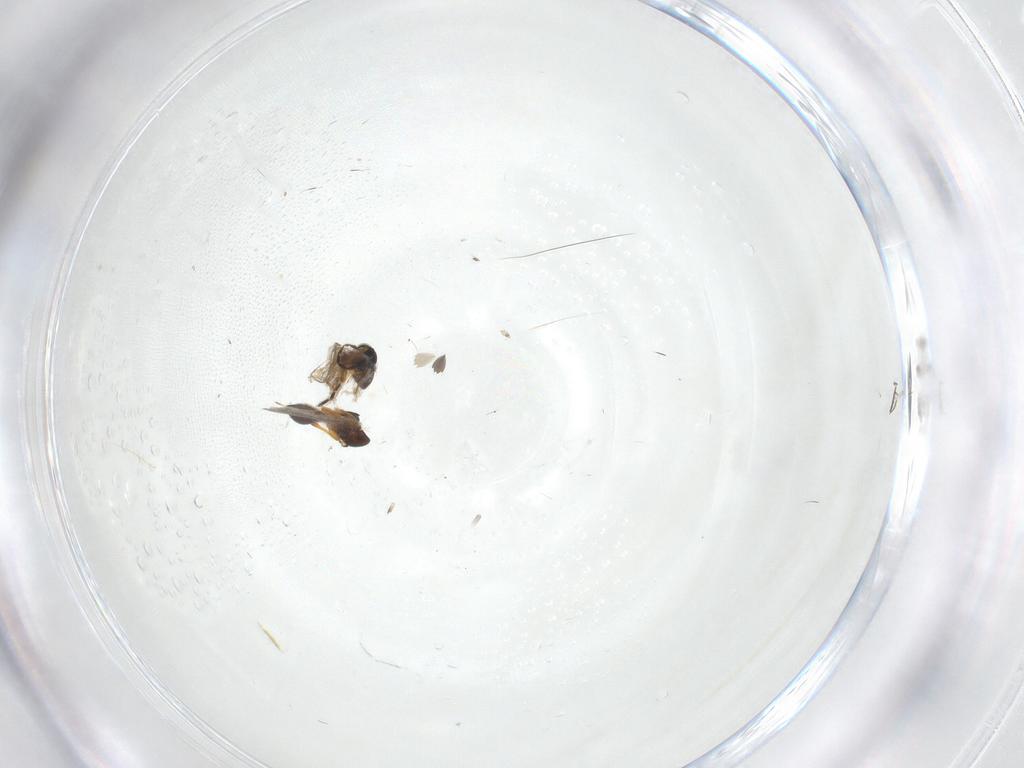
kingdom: Animalia
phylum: Arthropoda
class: Insecta
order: Hymenoptera
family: Platygastridae
